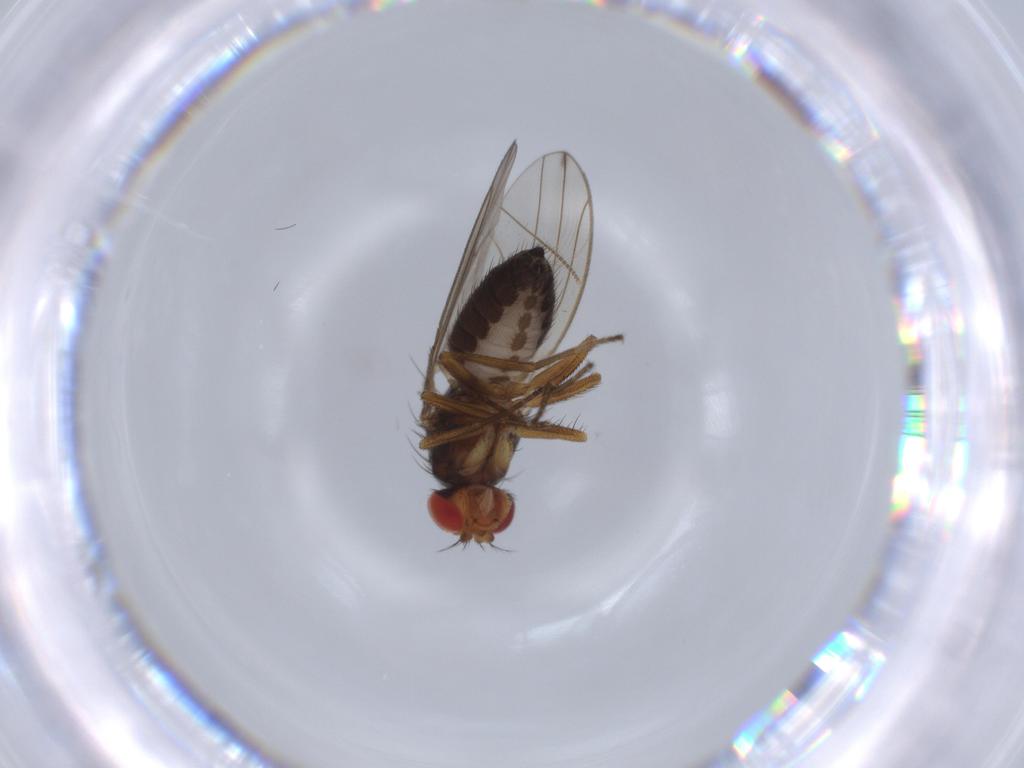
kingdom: Animalia
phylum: Arthropoda
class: Insecta
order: Diptera
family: Drosophilidae
